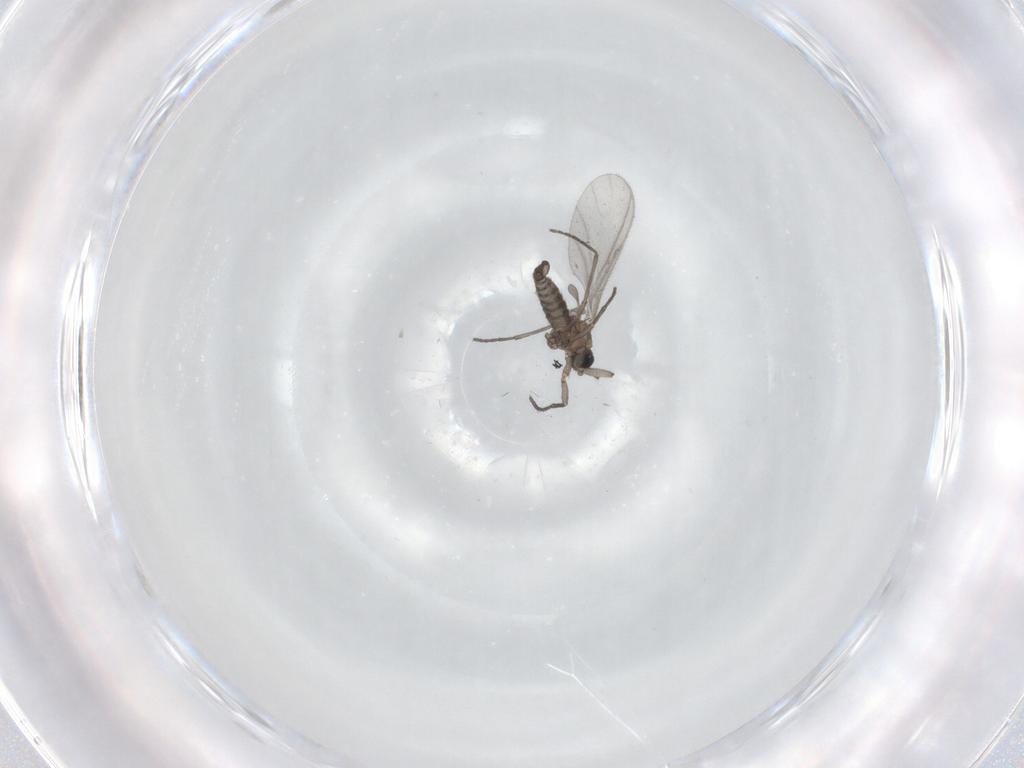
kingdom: Animalia
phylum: Arthropoda
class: Insecta
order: Diptera
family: Sciaridae
